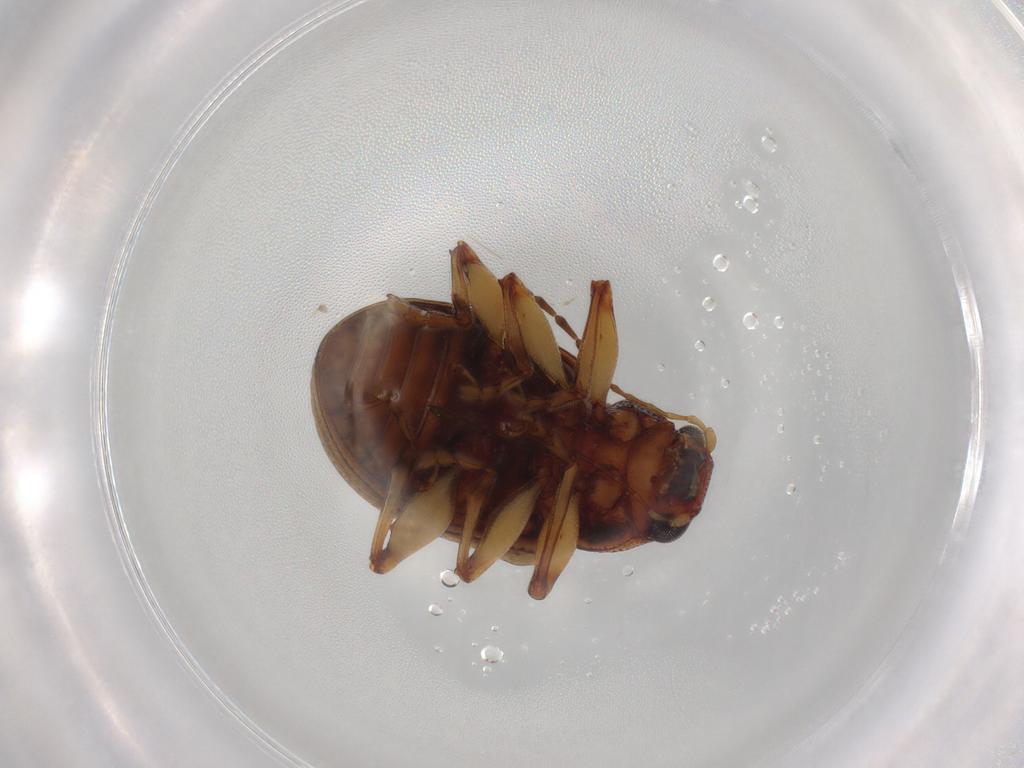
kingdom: Animalia
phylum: Arthropoda
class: Insecta
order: Coleoptera
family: Chrysomelidae
